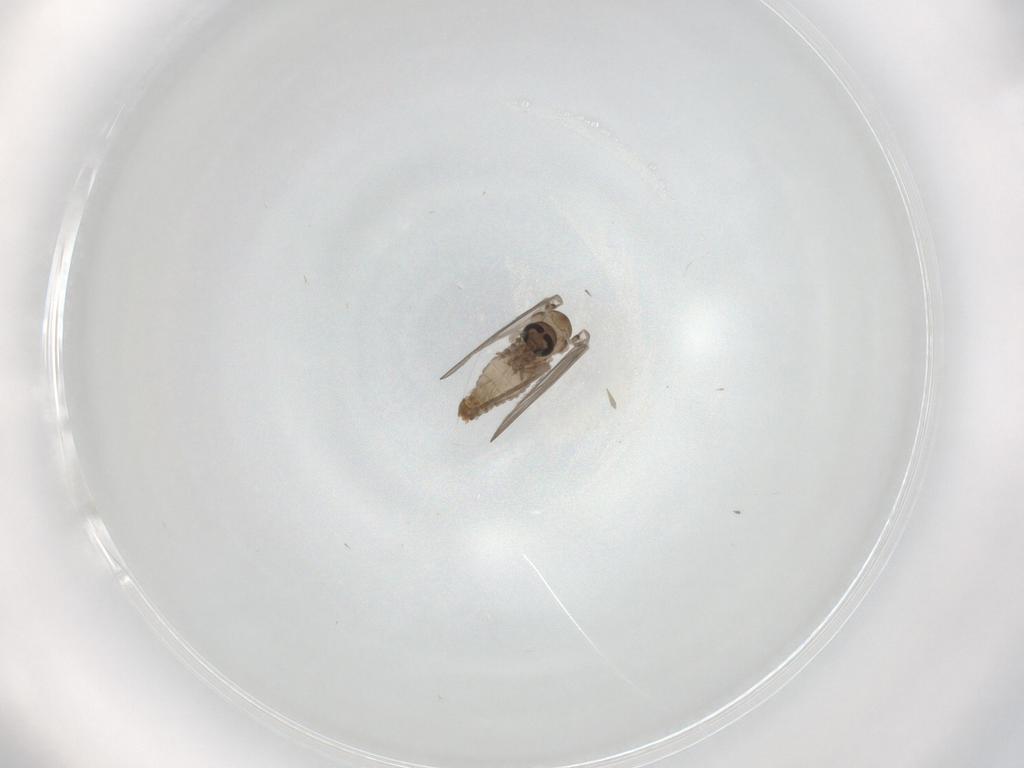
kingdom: Animalia
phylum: Arthropoda
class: Insecta
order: Diptera
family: Psychodidae
